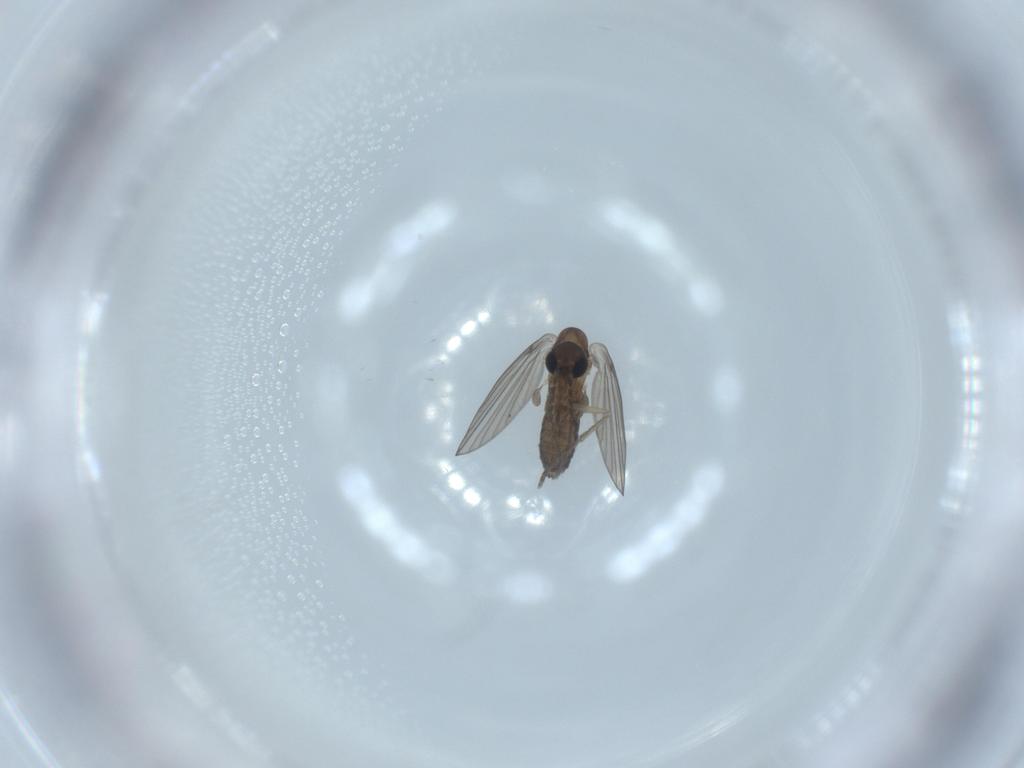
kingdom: Animalia
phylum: Arthropoda
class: Insecta
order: Diptera
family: Psychodidae
